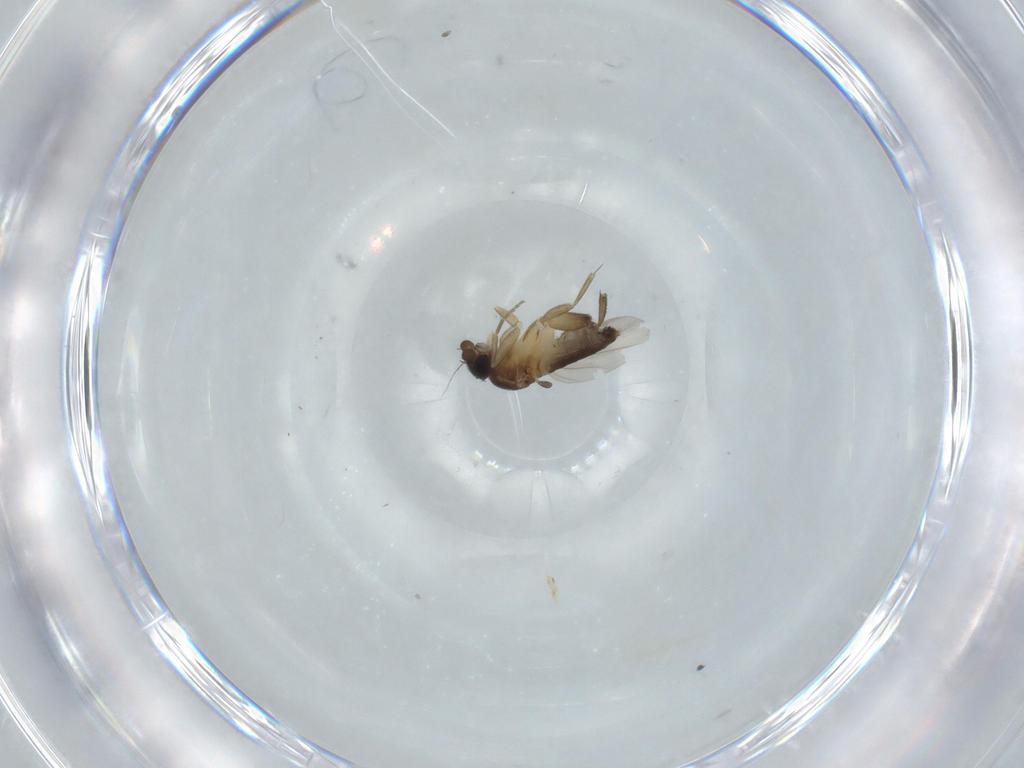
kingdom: Animalia
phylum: Arthropoda
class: Insecta
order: Diptera
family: Phoridae
